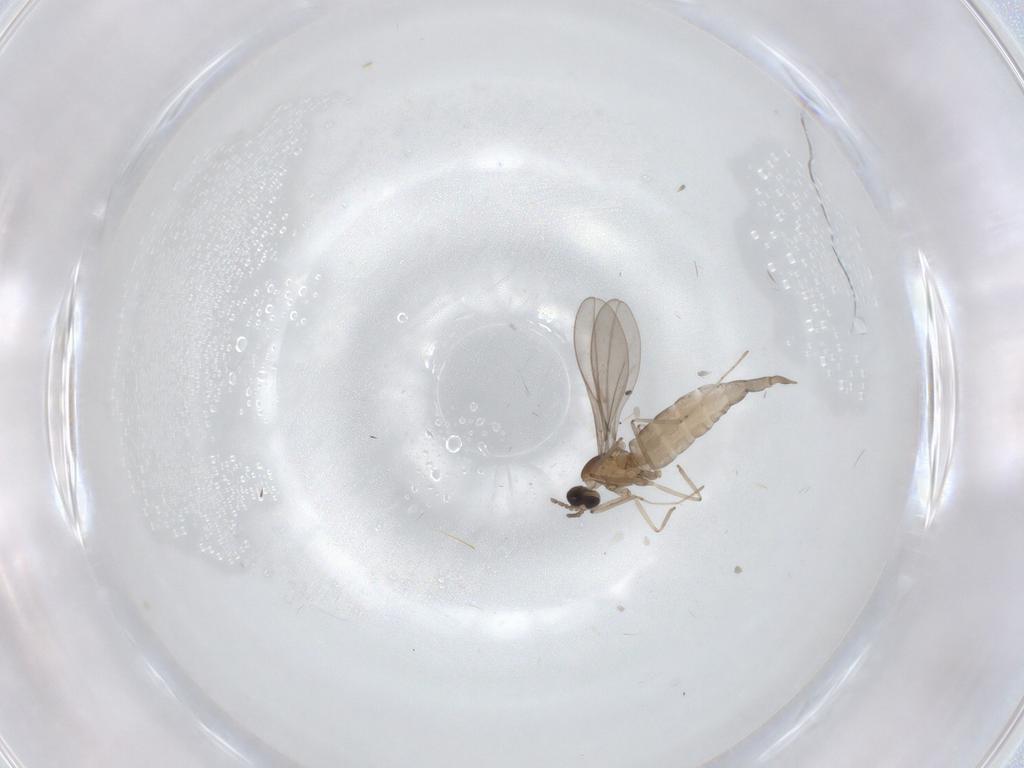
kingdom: Animalia
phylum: Arthropoda
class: Insecta
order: Diptera
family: Cecidomyiidae
